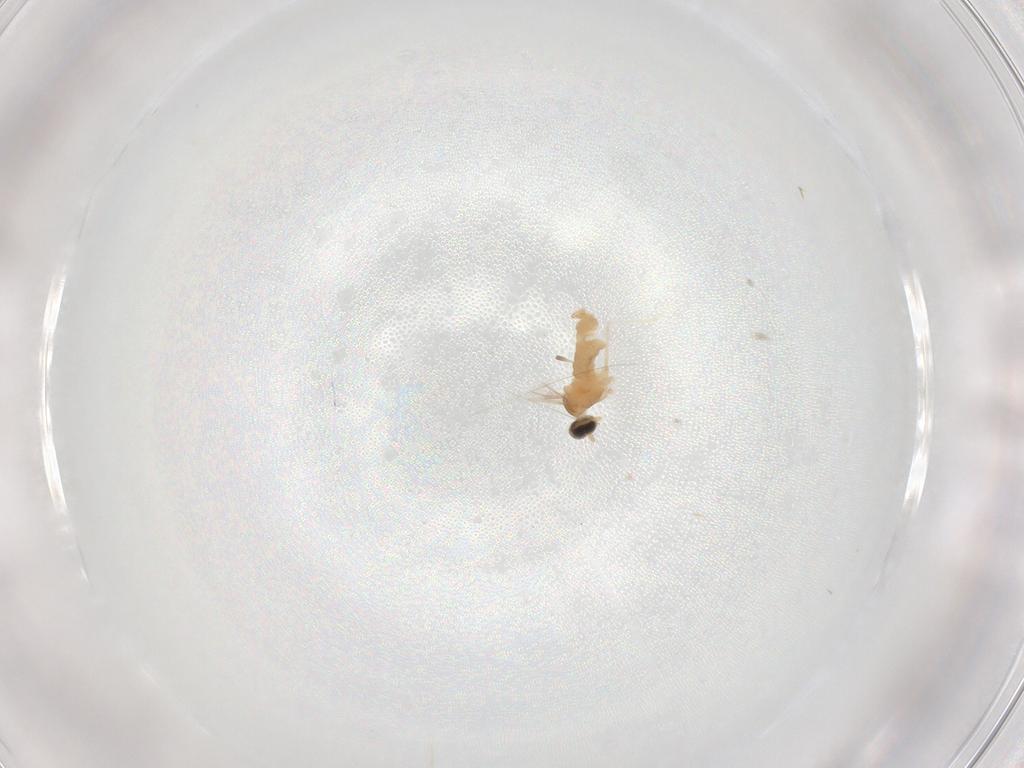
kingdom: Animalia
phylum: Arthropoda
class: Insecta
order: Diptera
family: Cecidomyiidae
